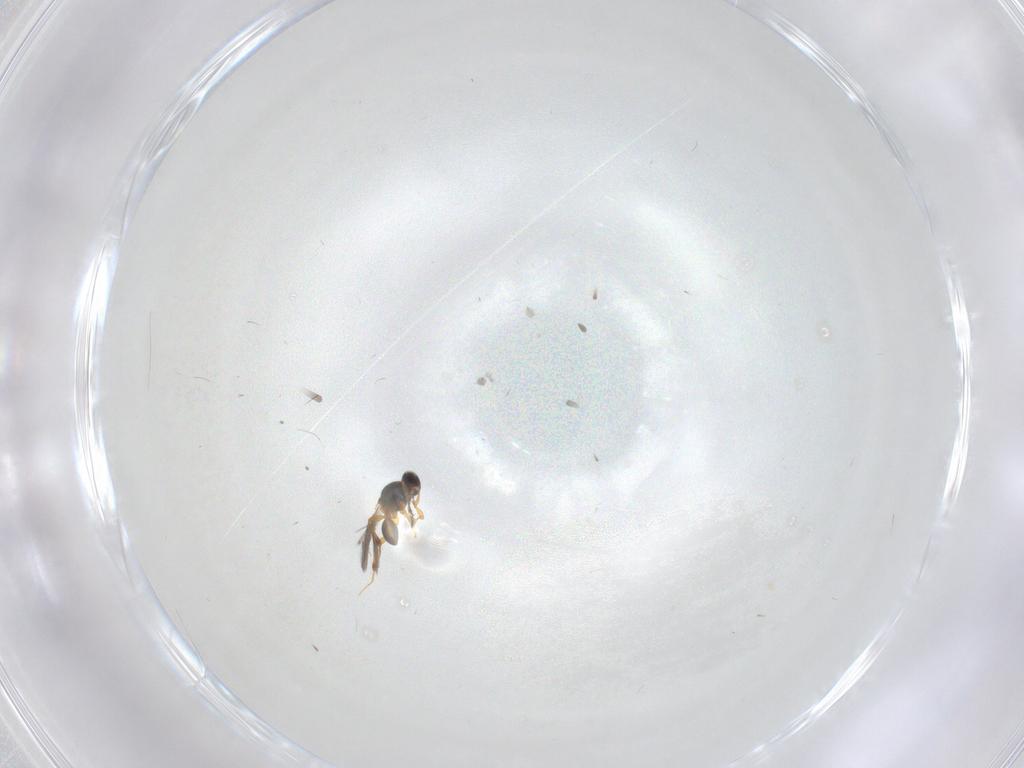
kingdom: Animalia
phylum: Arthropoda
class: Insecta
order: Hymenoptera
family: Platygastridae
